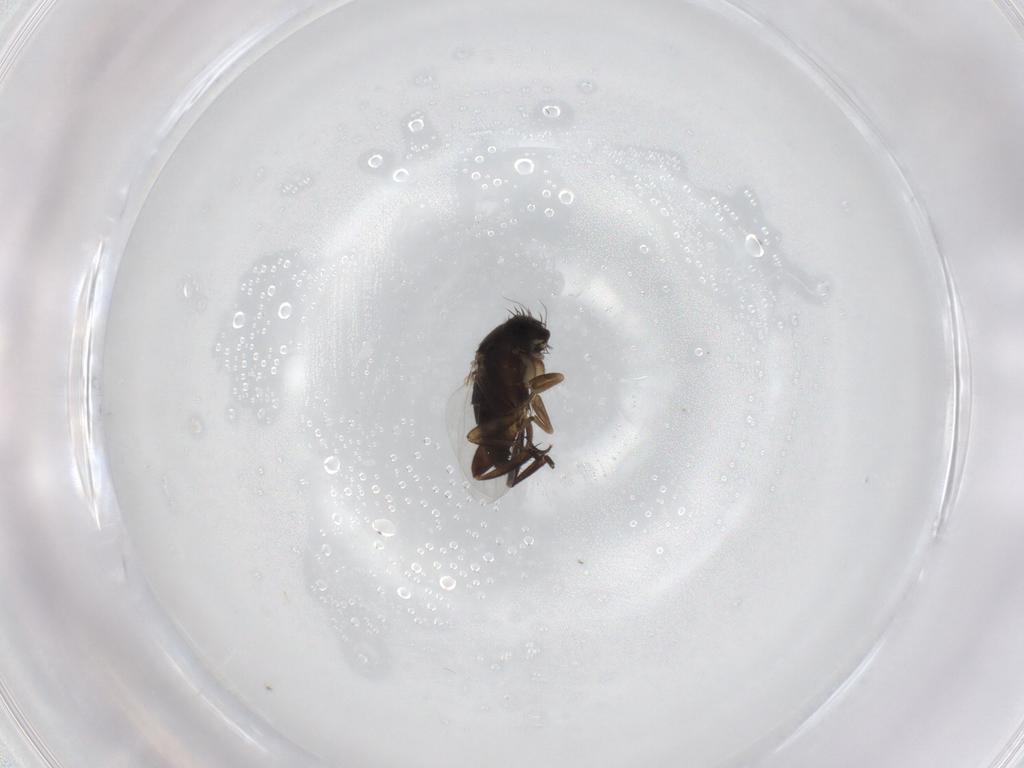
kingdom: Animalia
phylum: Arthropoda
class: Insecta
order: Diptera
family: Phoridae
